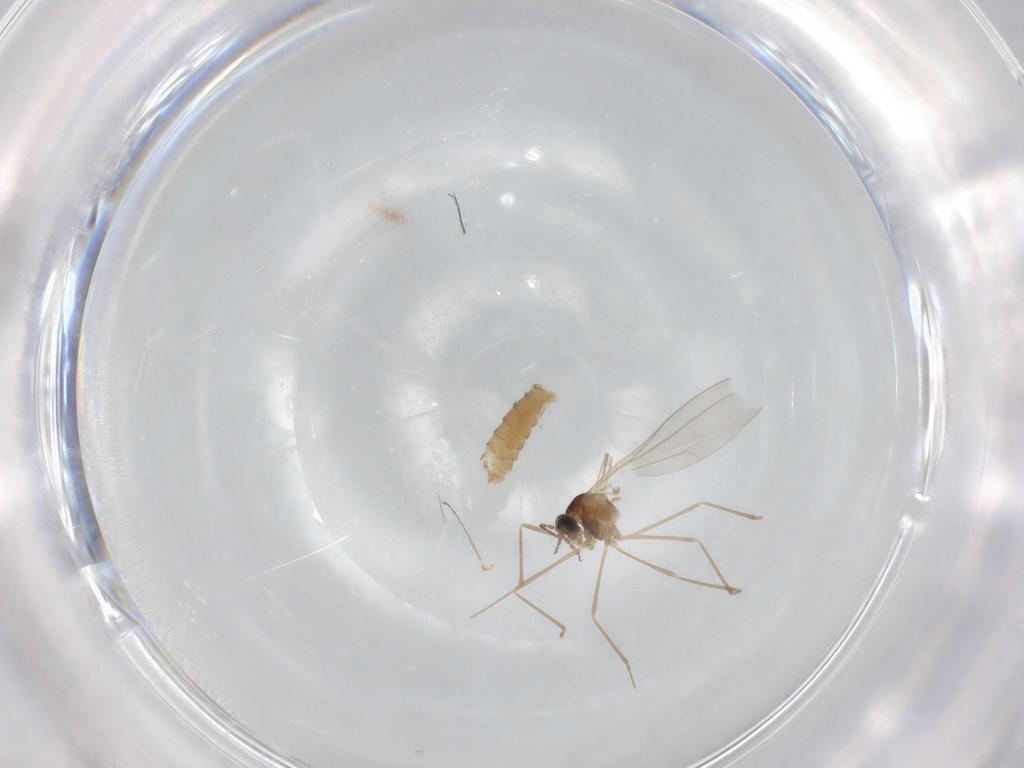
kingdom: Animalia
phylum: Arthropoda
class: Insecta
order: Diptera
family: Cecidomyiidae
